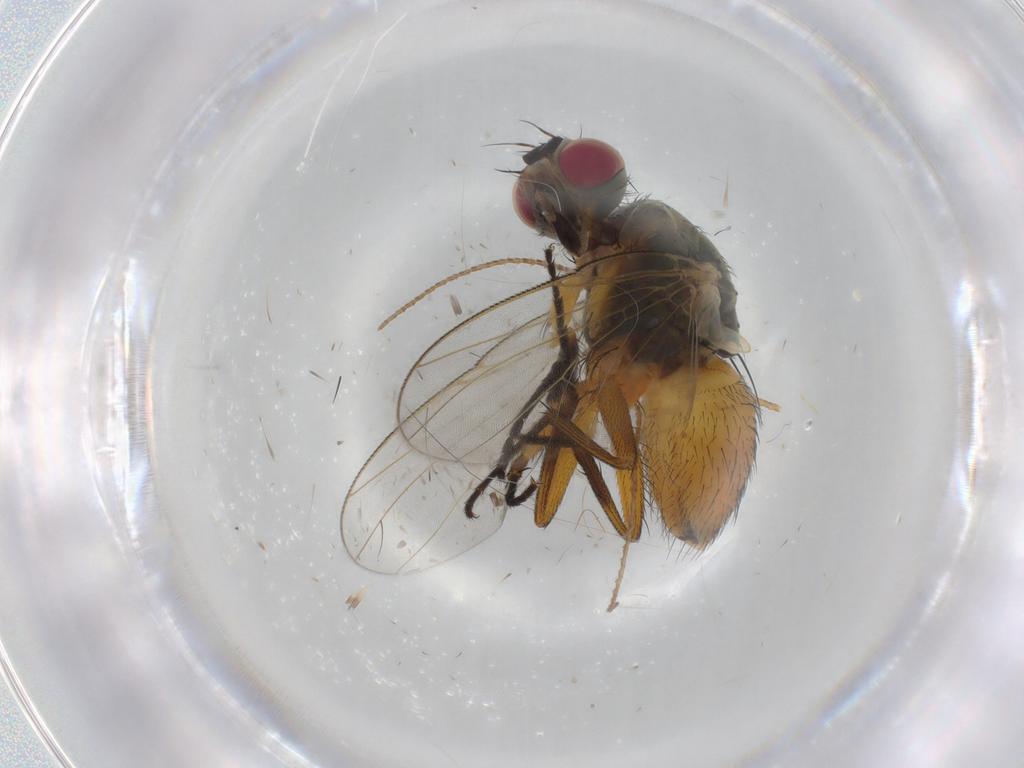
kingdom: Animalia
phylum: Arthropoda
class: Insecta
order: Diptera
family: Muscidae
